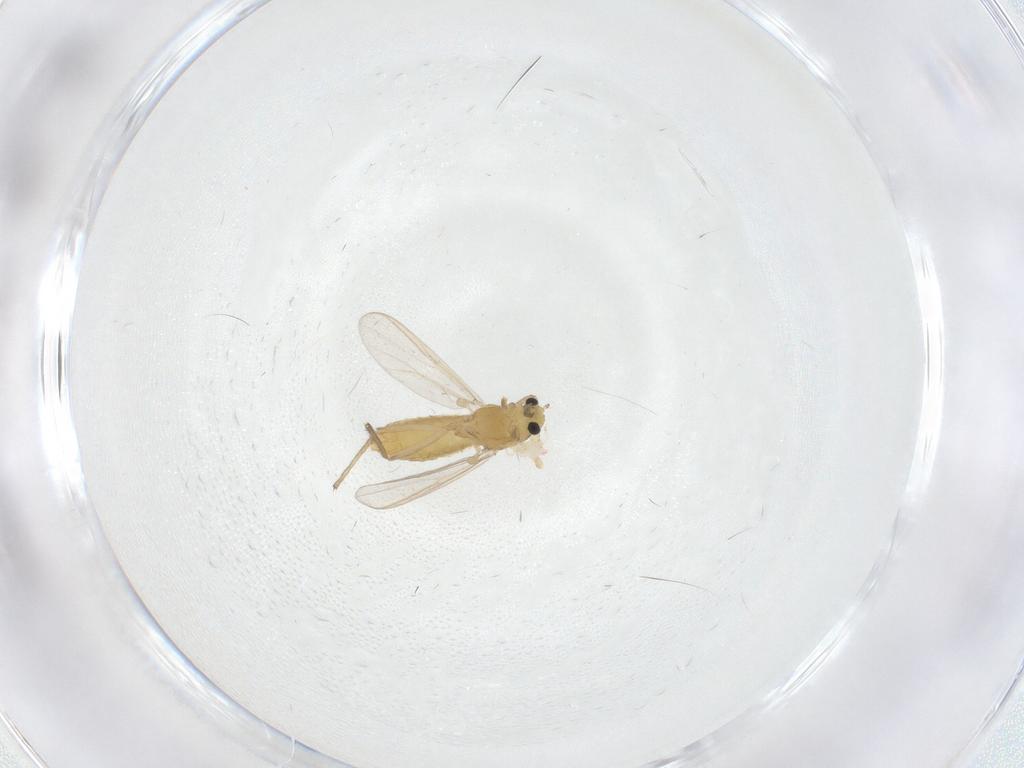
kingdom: Animalia
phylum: Arthropoda
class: Insecta
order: Diptera
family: Chironomidae
